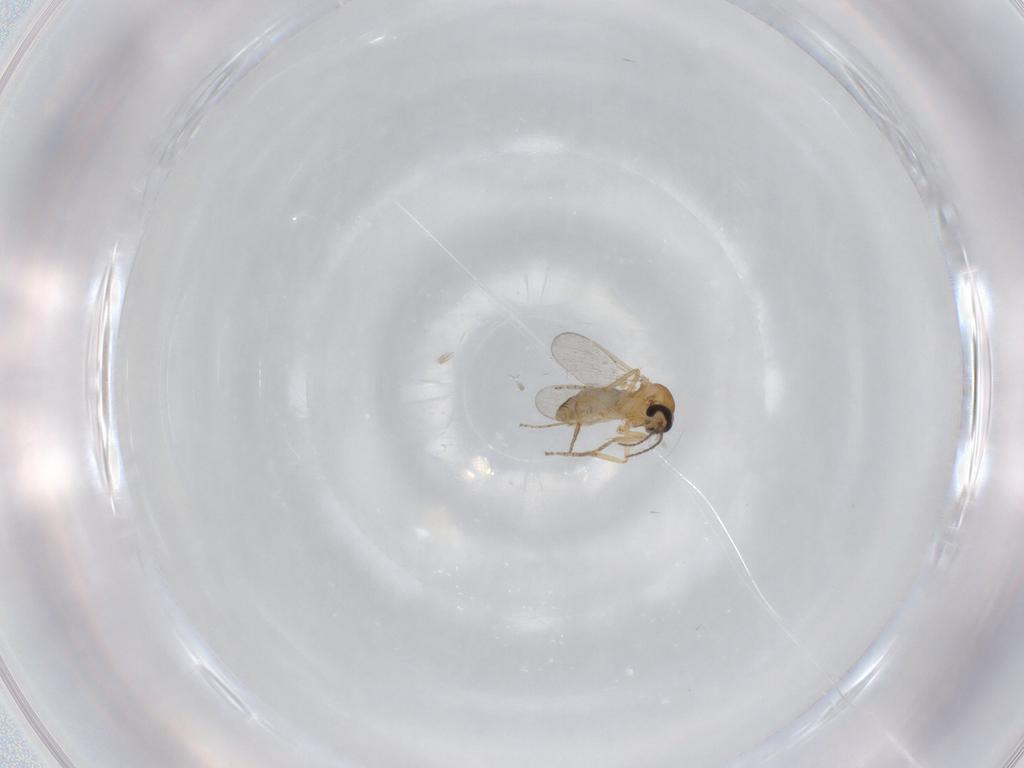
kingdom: Animalia
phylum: Arthropoda
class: Insecta
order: Diptera
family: Ceratopogonidae
